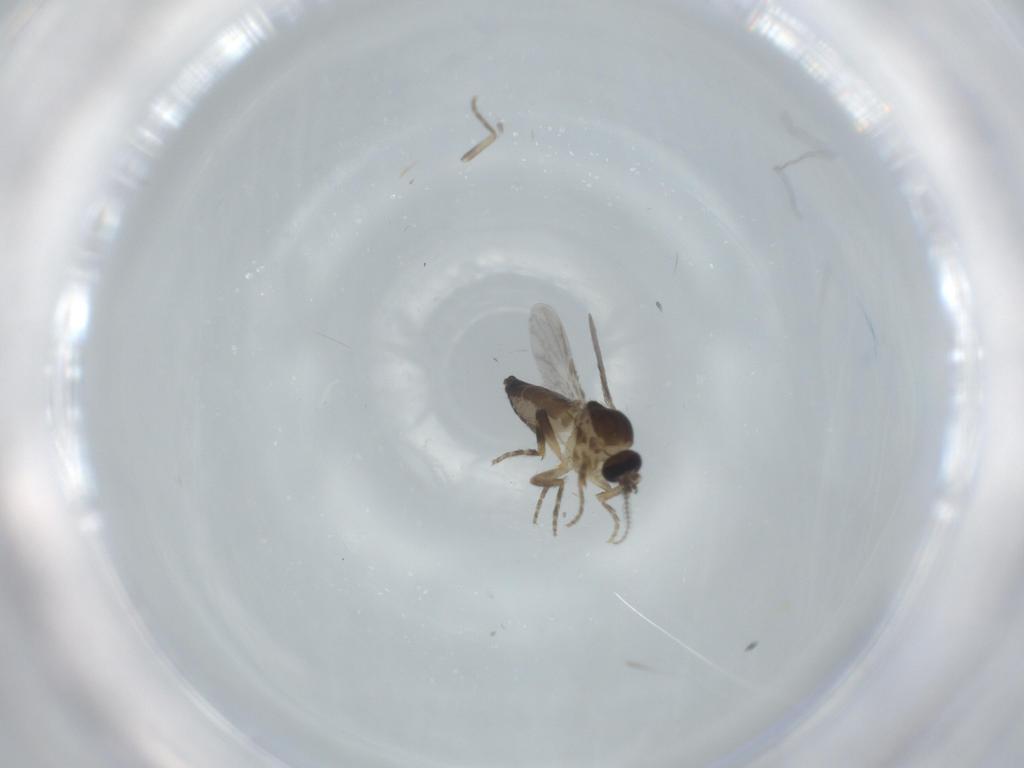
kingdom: Animalia
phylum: Arthropoda
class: Insecta
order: Diptera
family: Ceratopogonidae
